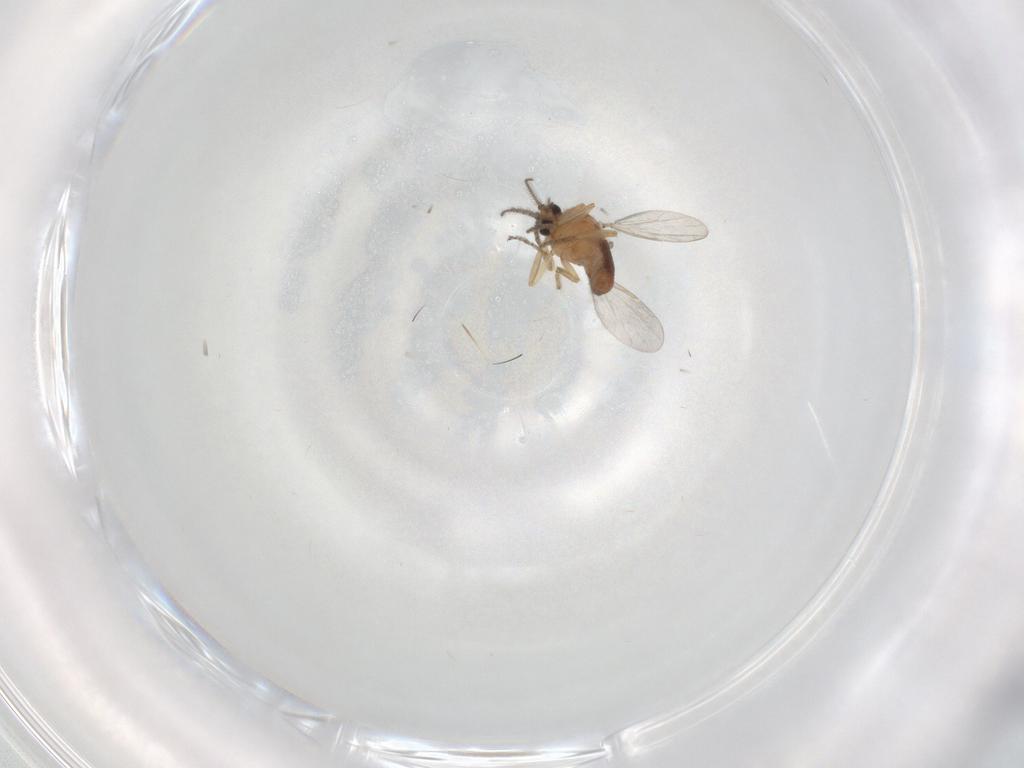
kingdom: Animalia
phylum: Arthropoda
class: Insecta
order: Diptera
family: Ceratopogonidae
